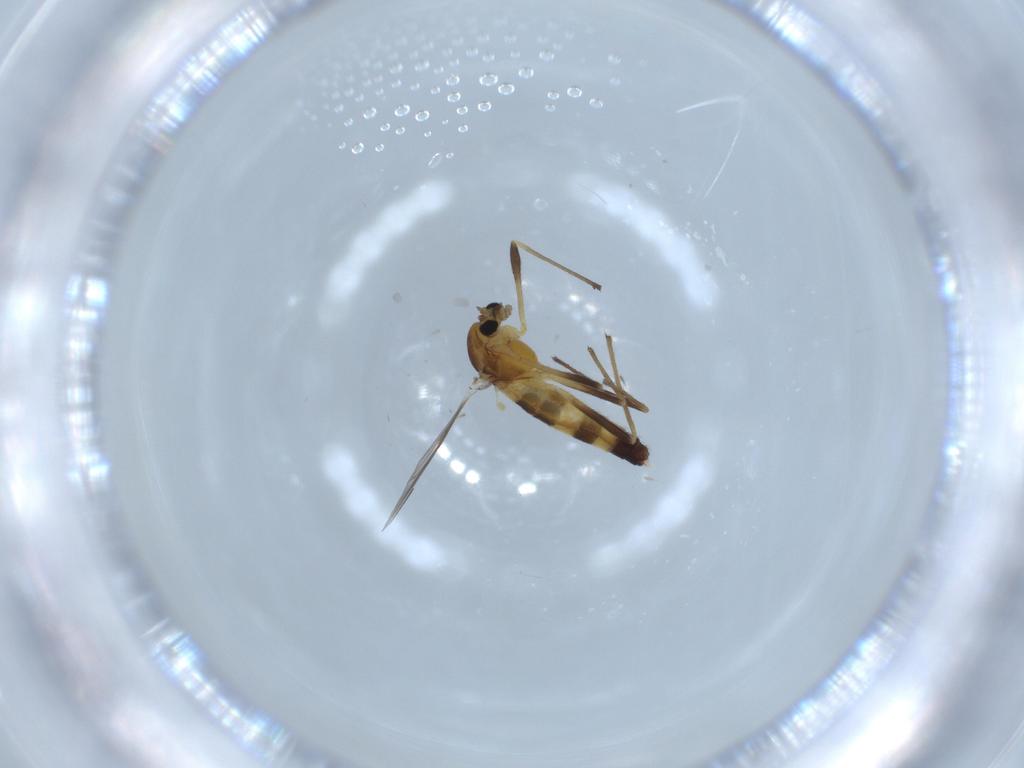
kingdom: Animalia
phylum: Arthropoda
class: Insecta
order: Diptera
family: Chironomidae
